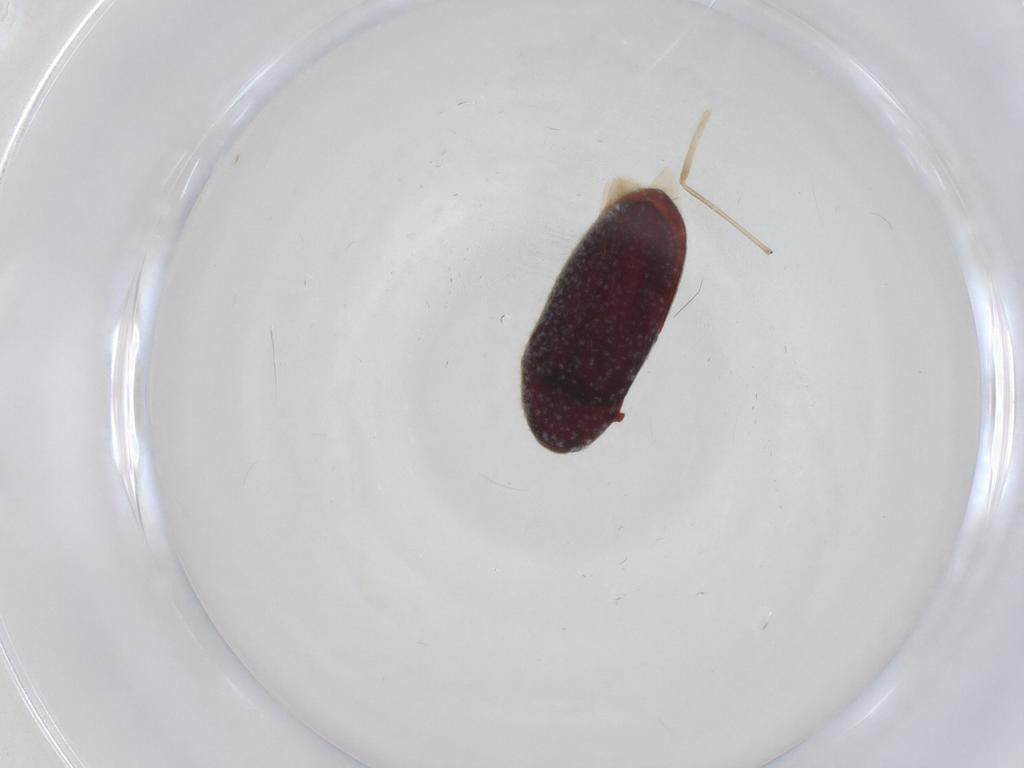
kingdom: Animalia
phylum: Arthropoda
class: Insecta
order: Coleoptera
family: Throscidae
